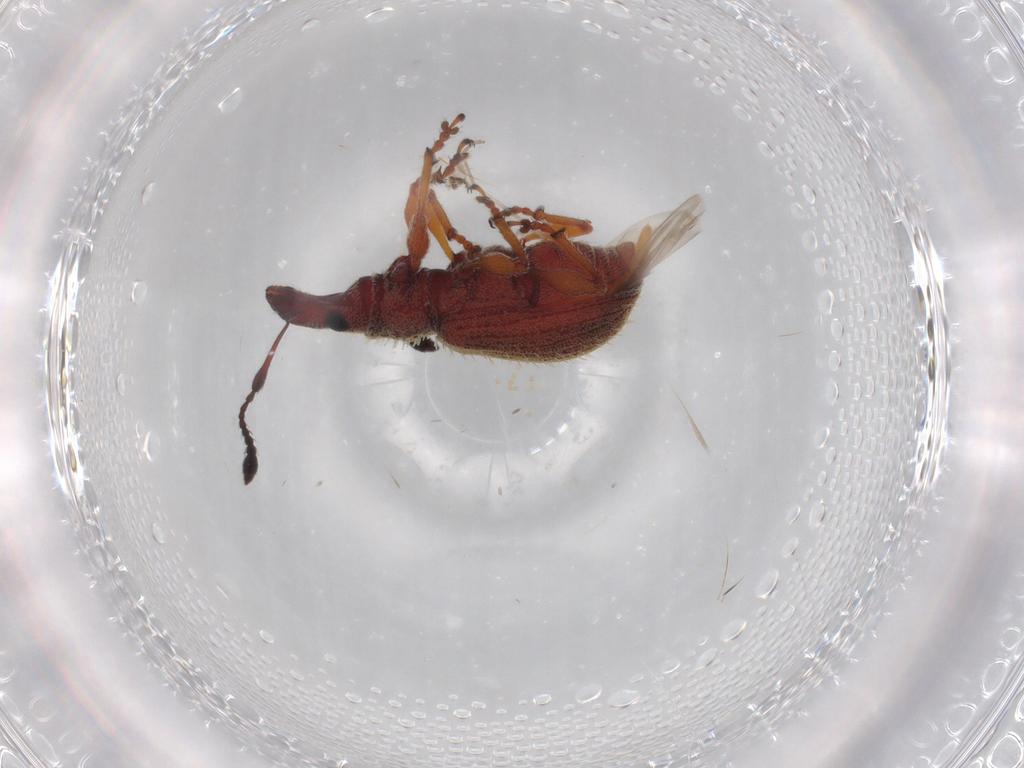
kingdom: Animalia
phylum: Arthropoda
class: Insecta
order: Coleoptera
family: Curculionidae
